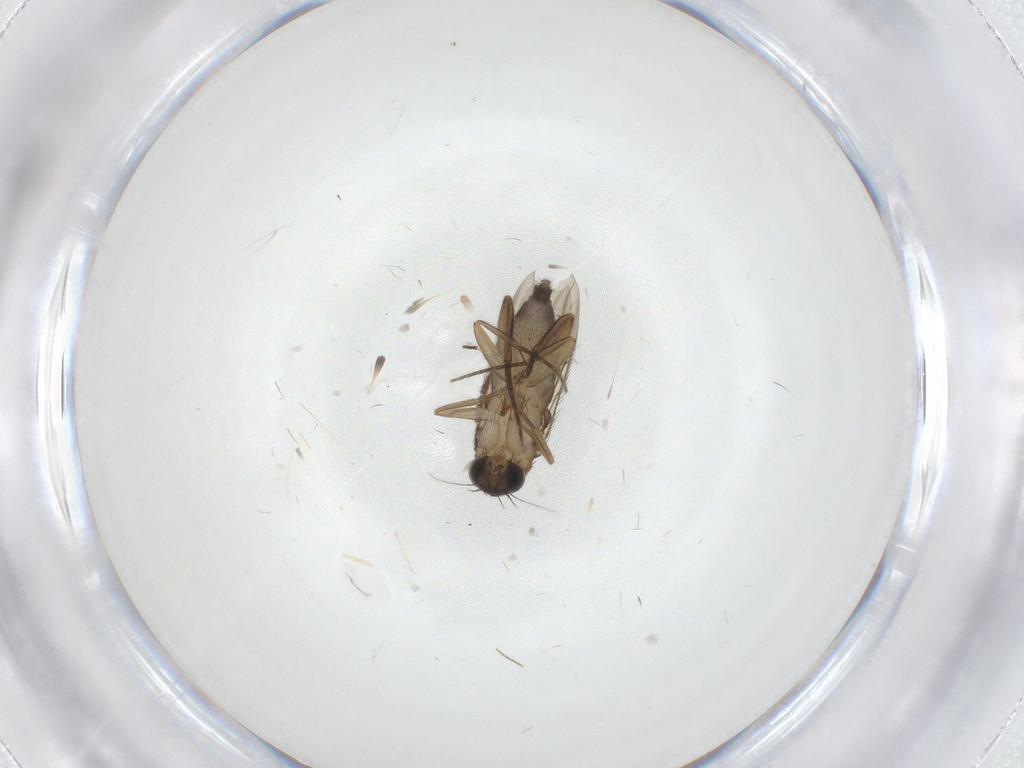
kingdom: Animalia
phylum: Arthropoda
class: Insecta
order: Diptera
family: Phoridae
